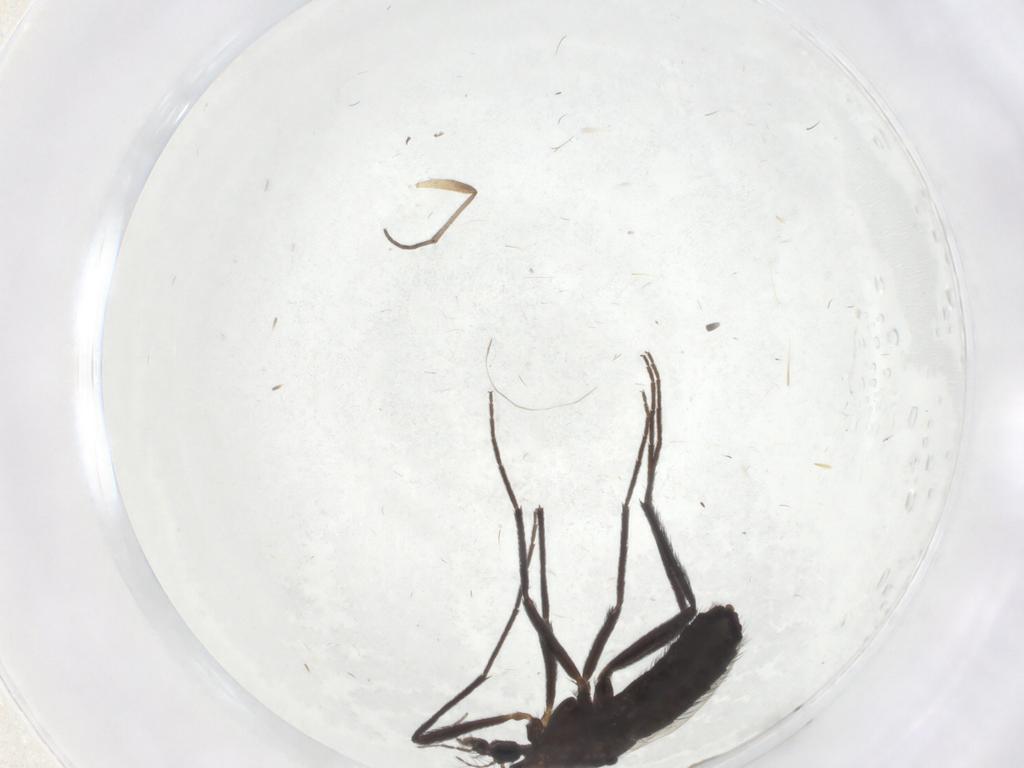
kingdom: Animalia
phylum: Arthropoda
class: Insecta
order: Diptera
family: Chironomidae
